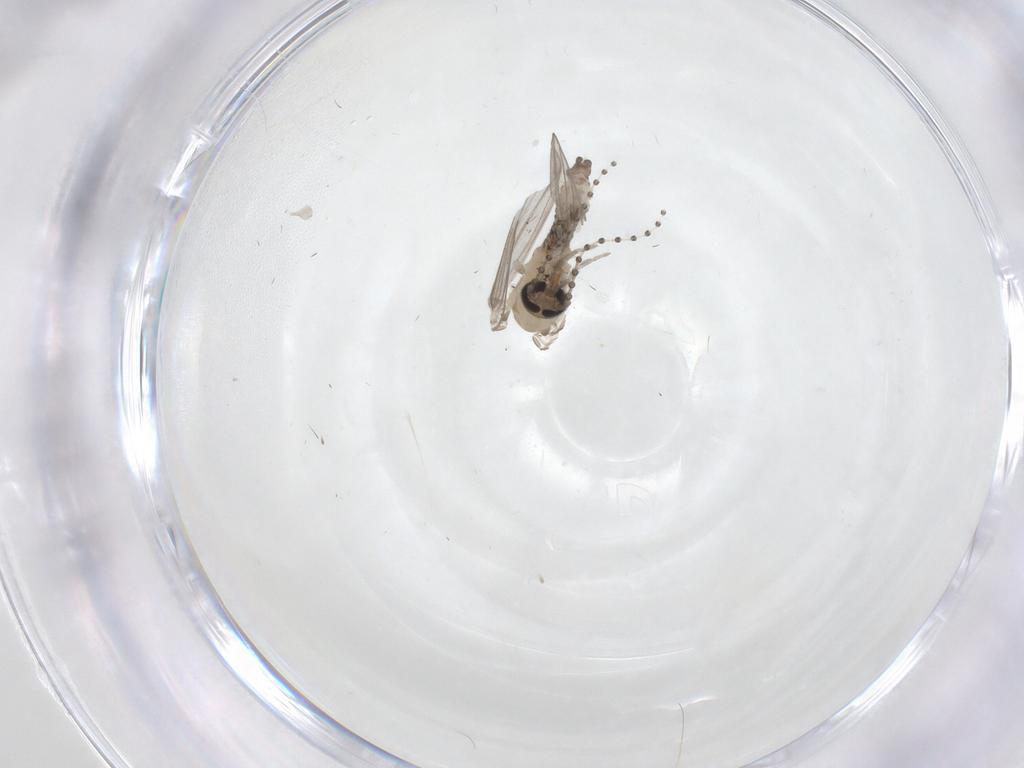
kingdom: Animalia
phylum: Arthropoda
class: Insecta
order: Diptera
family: Psychodidae
